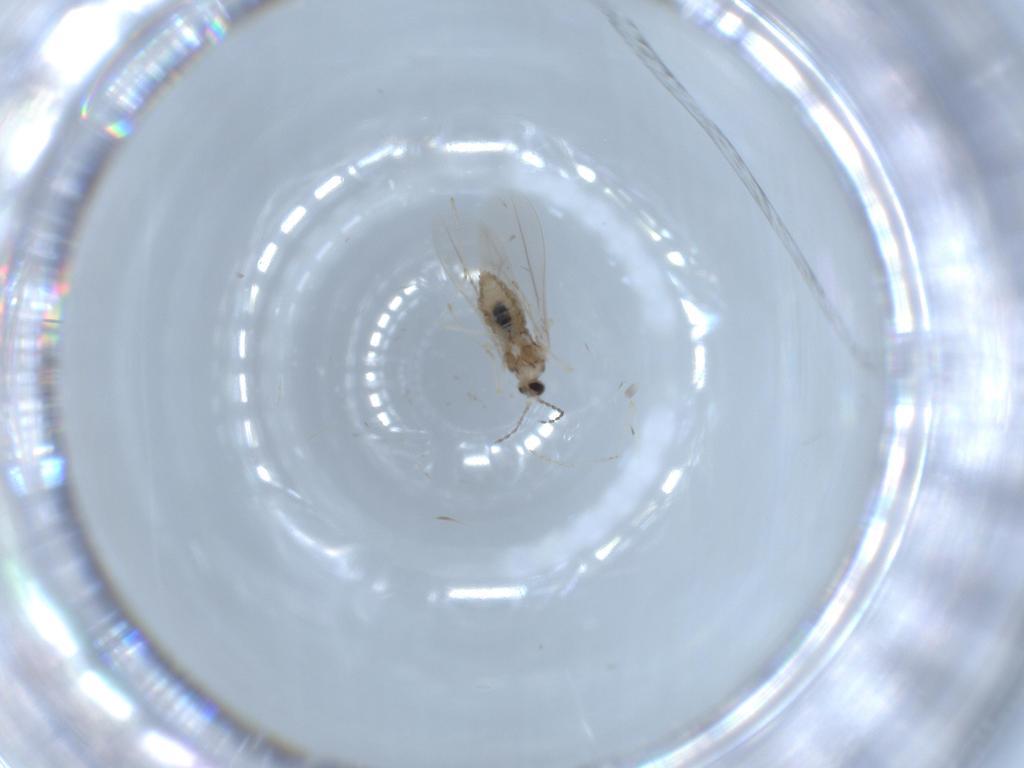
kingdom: Animalia
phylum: Arthropoda
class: Insecta
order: Diptera
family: Cecidomyiidae
